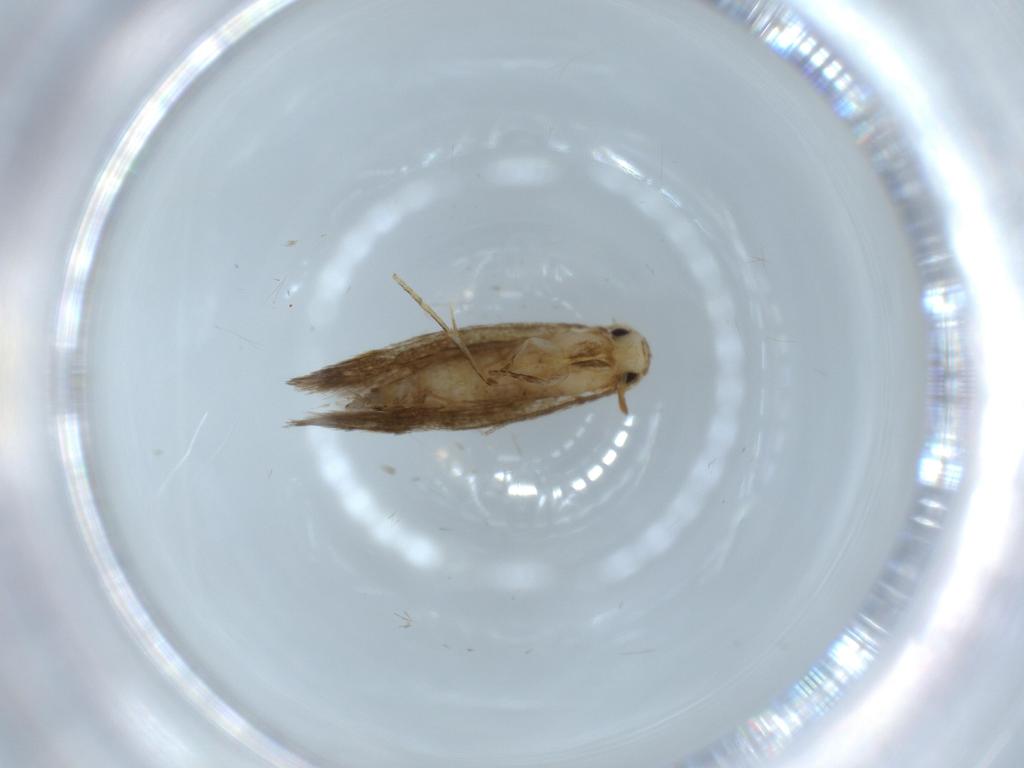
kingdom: Animalia
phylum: Arthropoda
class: Insecta
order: Lepidoptera
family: Tineidae
